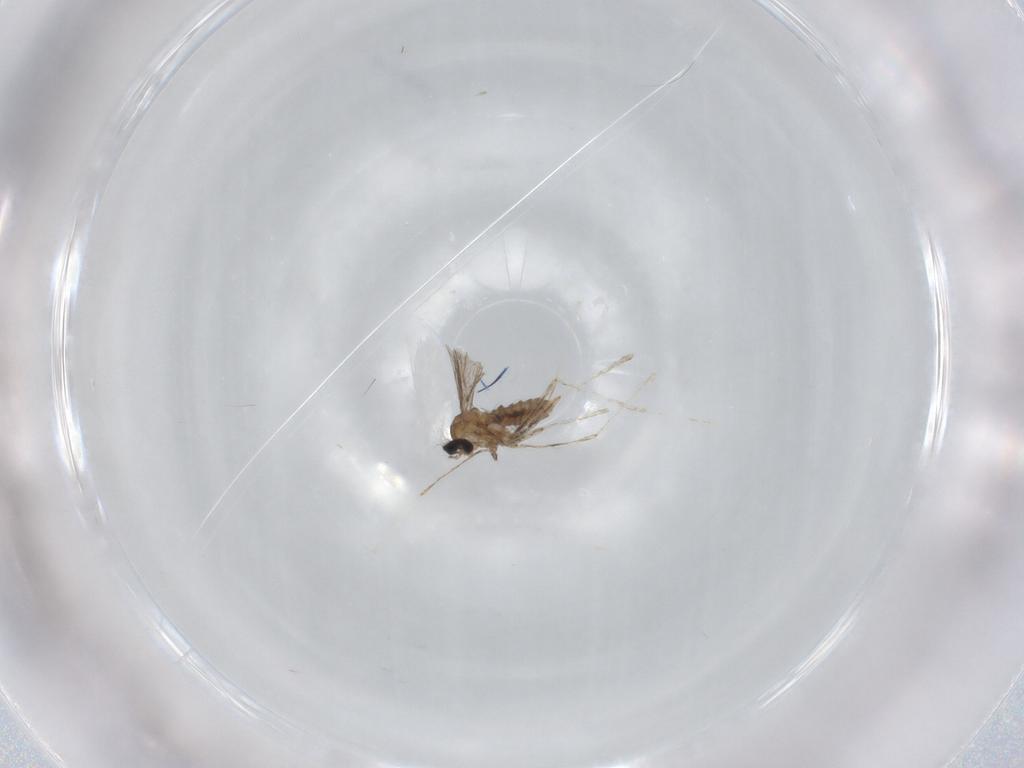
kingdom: Animalia
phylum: Arthropoda
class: Insecta
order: Diptera
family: Cecidomyiidae
